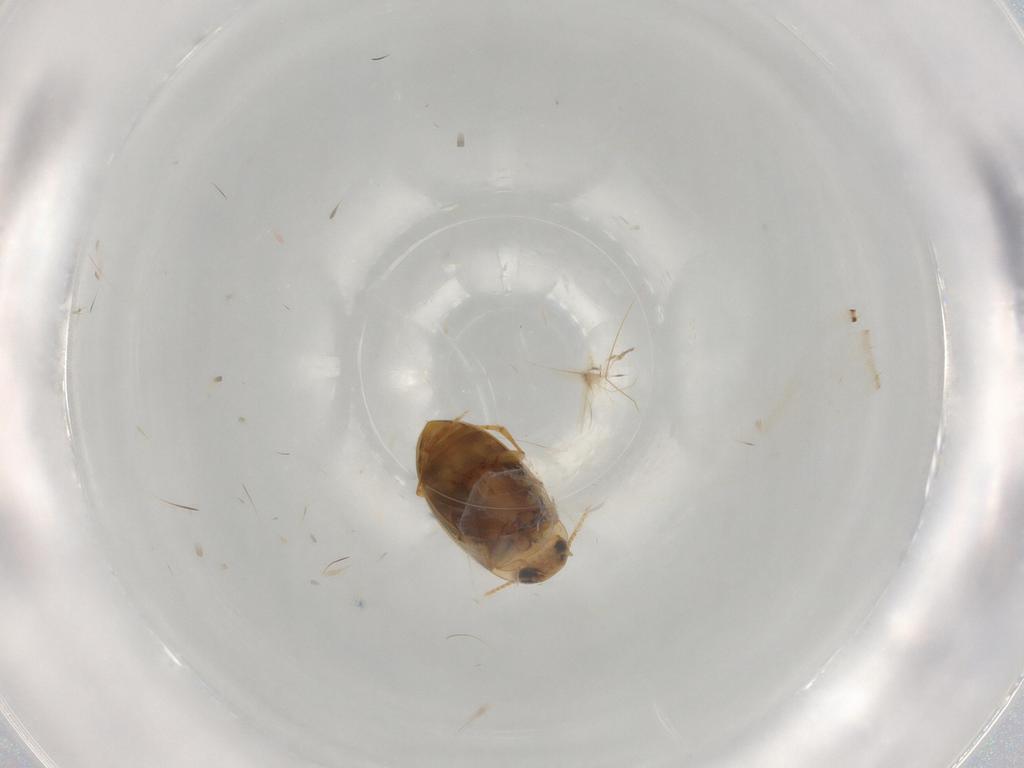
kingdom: Animalia
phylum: Arthropoda
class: Insecta
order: Coleoptera
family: Dytiscidae
